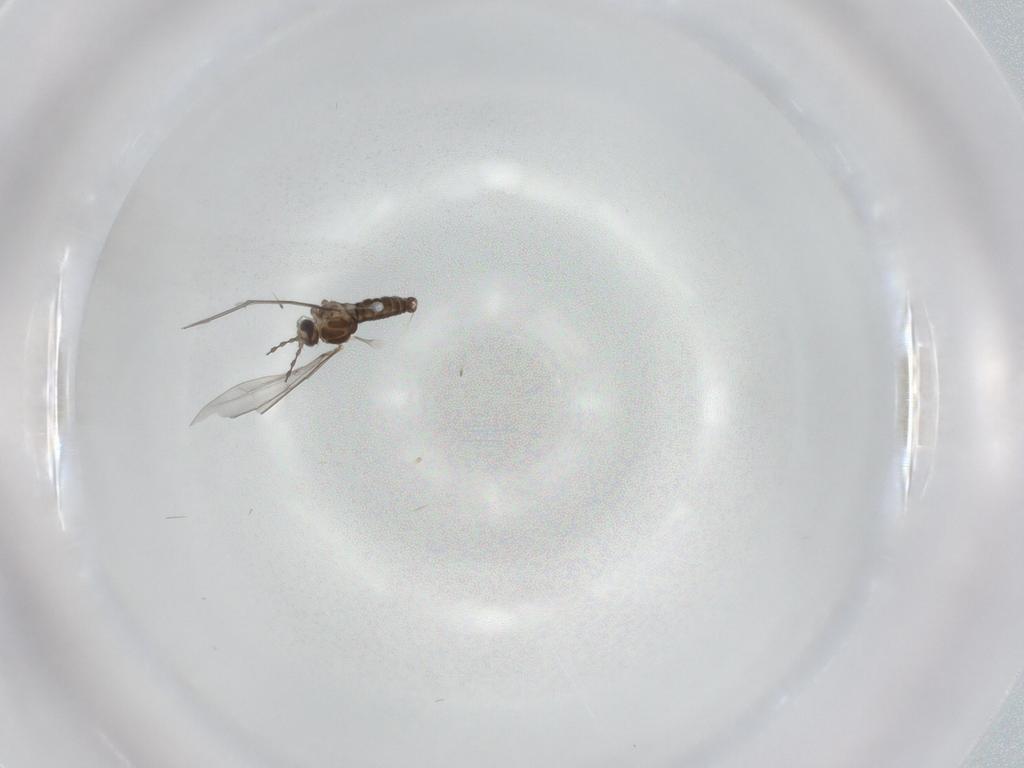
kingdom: Animalia
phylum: Arthropoda
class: Insecta
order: Diptera
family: Cecidomyiidae
